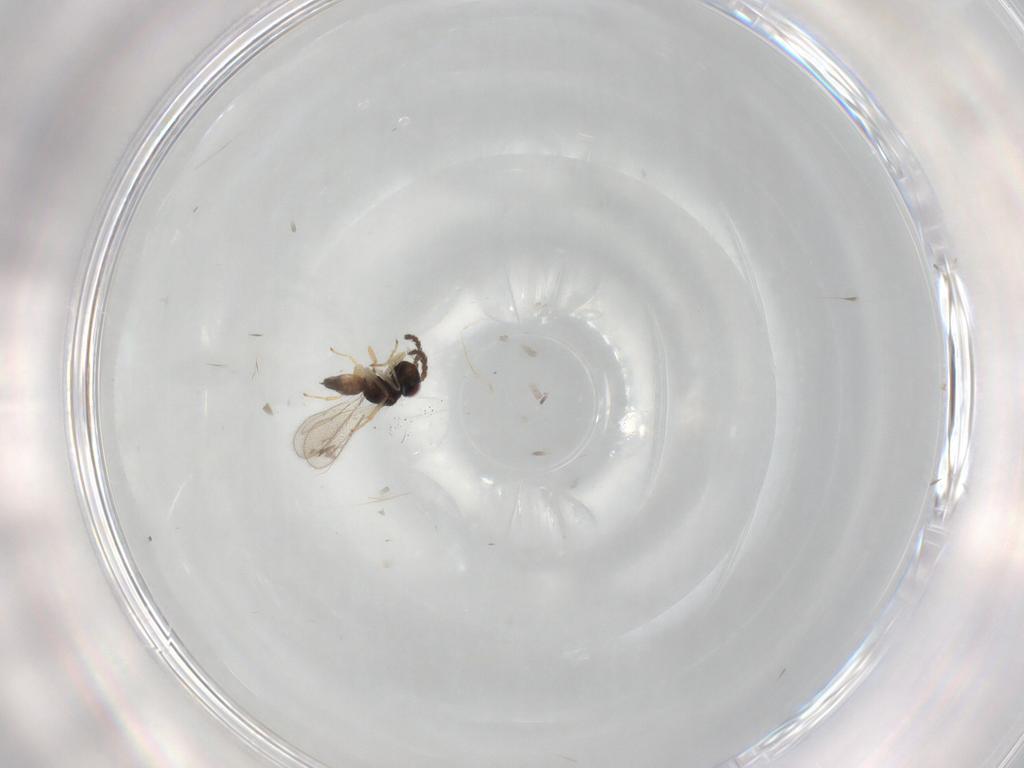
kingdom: Animalia
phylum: Arthropoda
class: Insecta
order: Hymenoptera
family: Eulophidae
